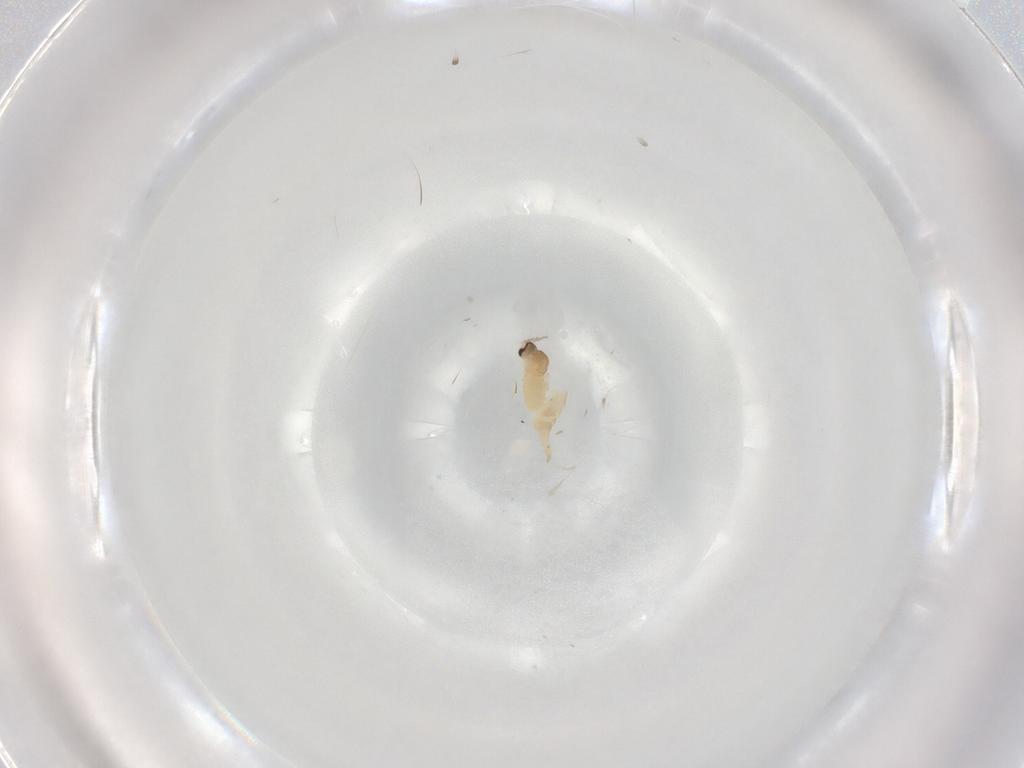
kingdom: Animalia
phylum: Arthropoda
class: Insecta
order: Diptera
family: Cecidomyiidae
